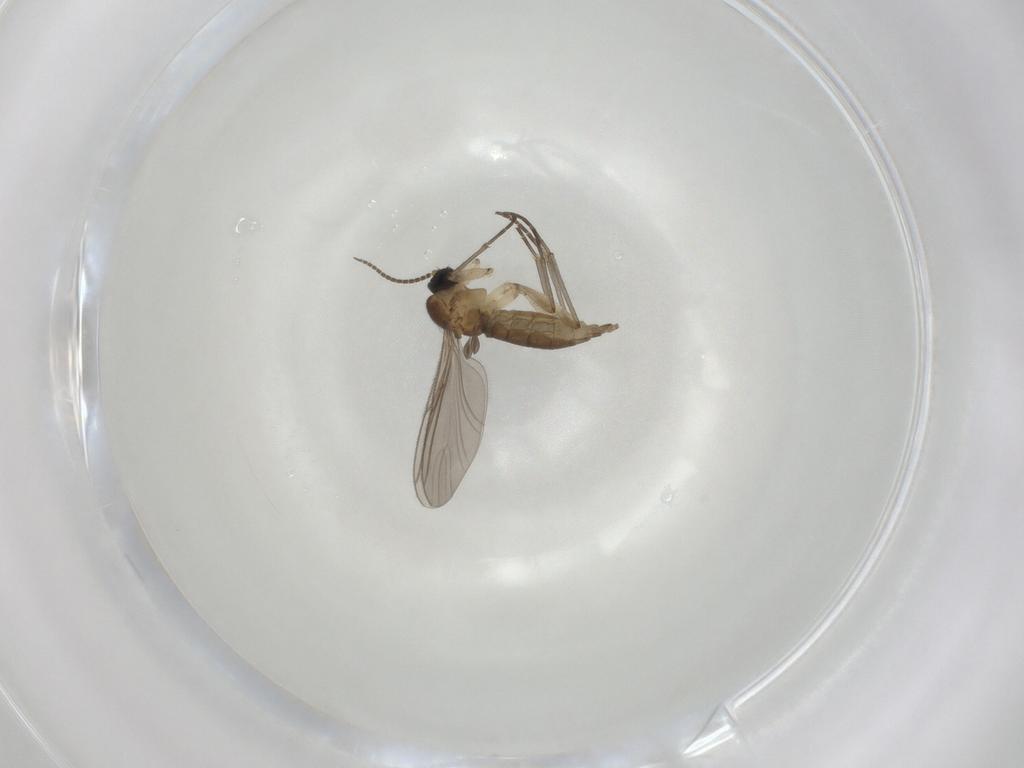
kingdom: Animalia
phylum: Arthropoda
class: Insecta
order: Diptera
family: Sciaridae
